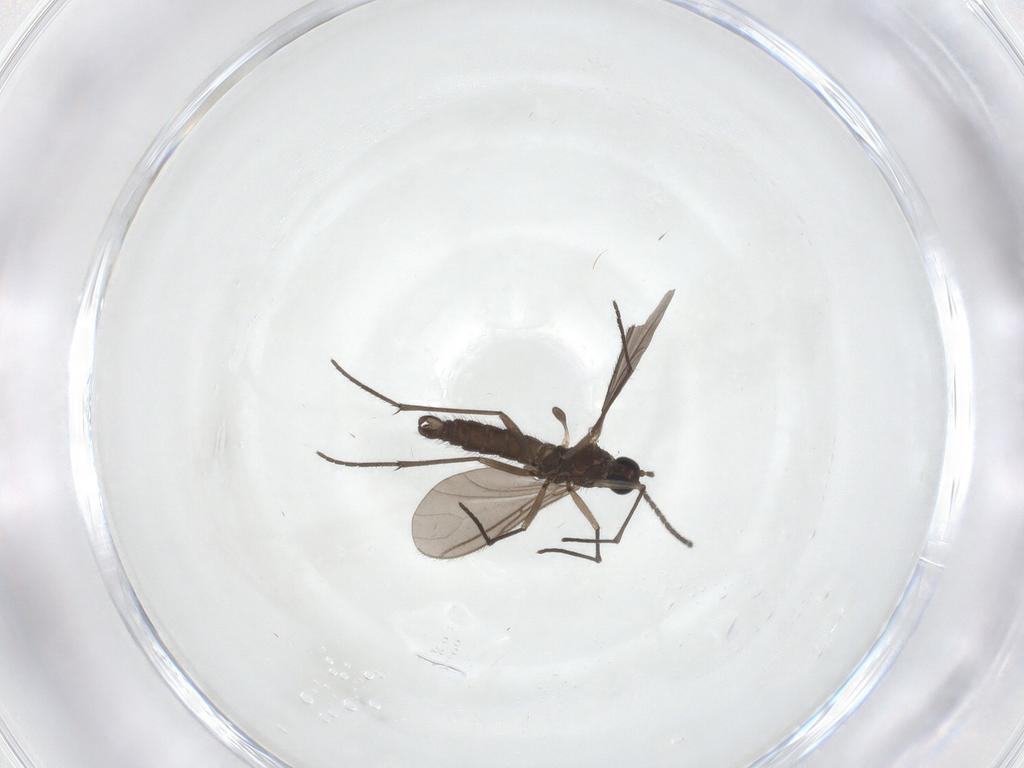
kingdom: Animalia
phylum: Arthropoda
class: Insecta
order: Diptera
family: Sciaridae
